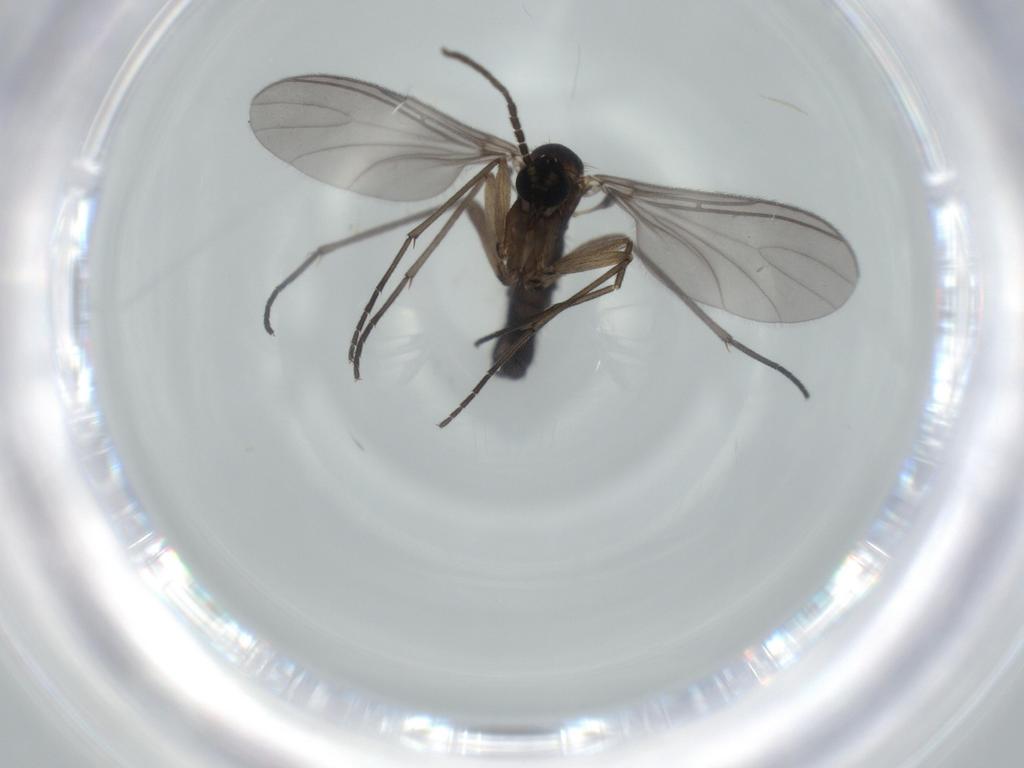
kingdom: Animalia
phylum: Arthropoda
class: Insecta
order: Diptera
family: Sciaridae
